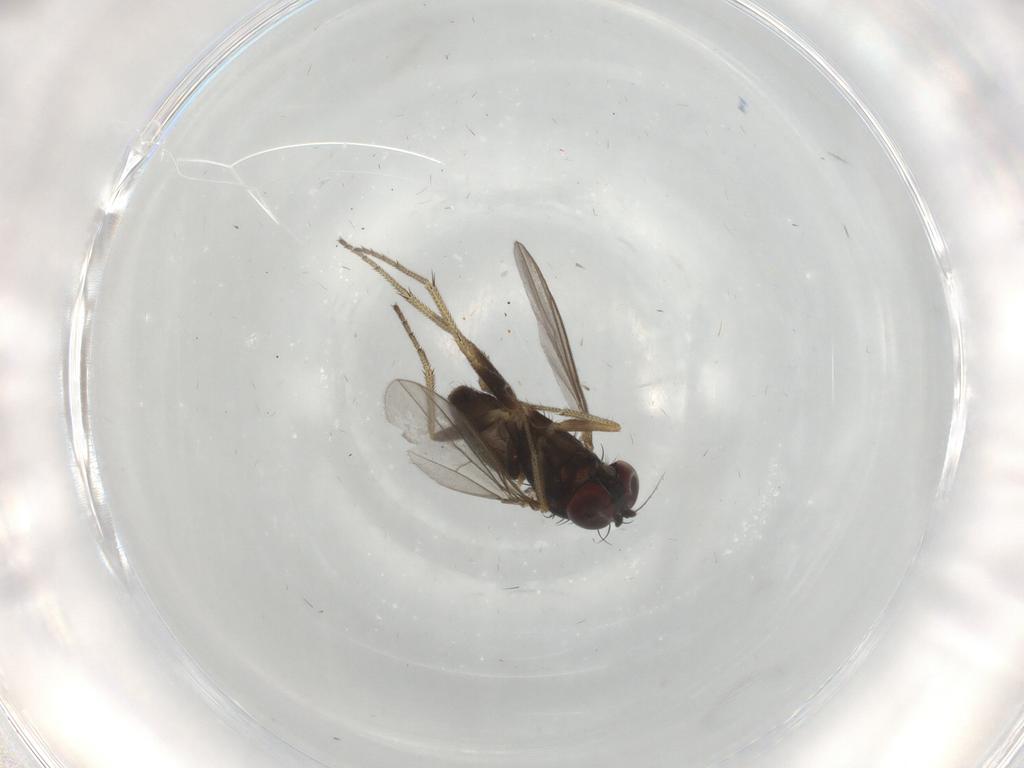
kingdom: Animalia
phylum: Arthropoda
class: Insecta
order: Diptera
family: Dolichopodidae
